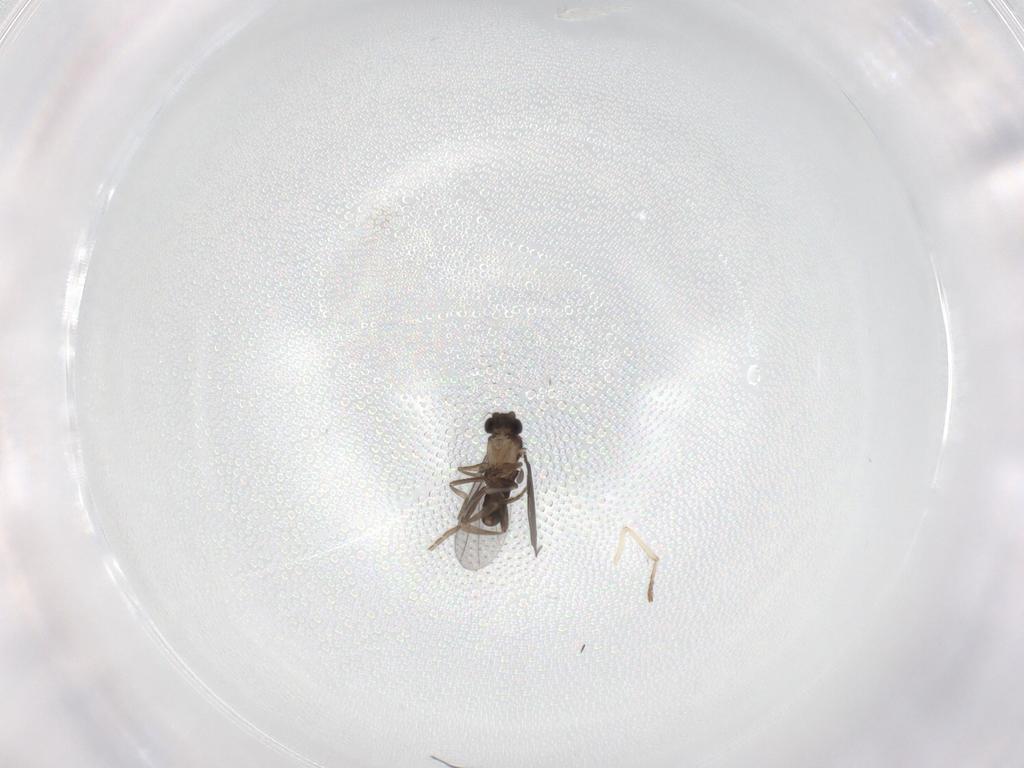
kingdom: Animalia
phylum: Arthropoda
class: Insecta
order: Diptera
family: Psychodidae
